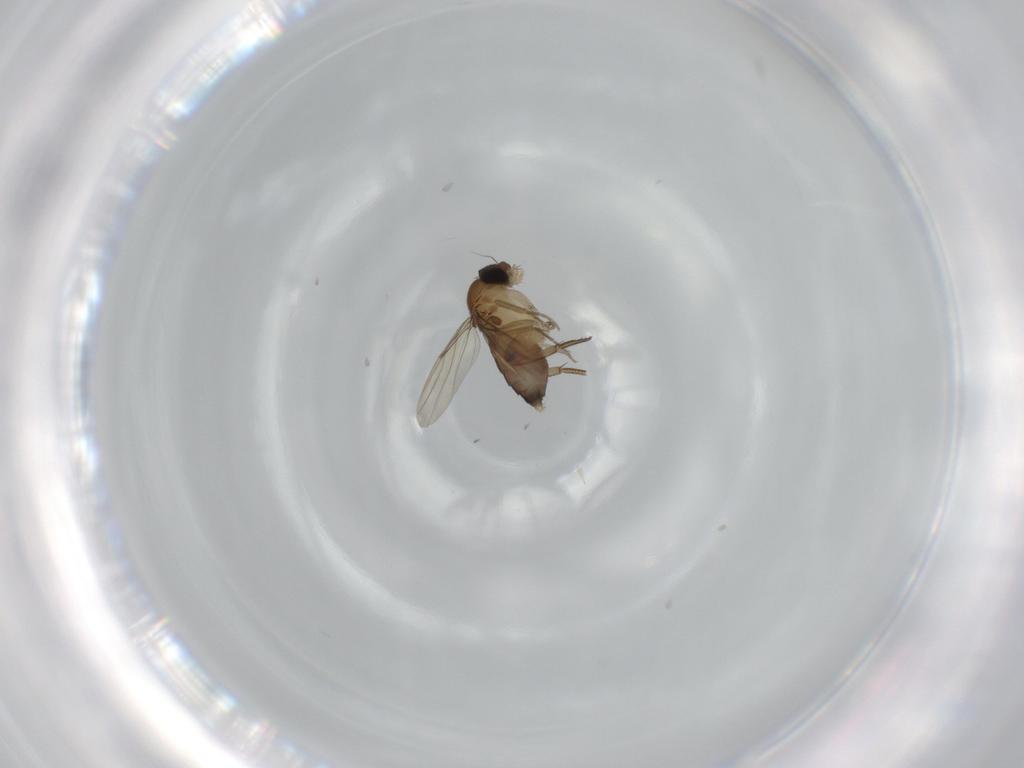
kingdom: Animalia
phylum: Arthropoda
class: Insecta
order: Diptera
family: Phoridae
